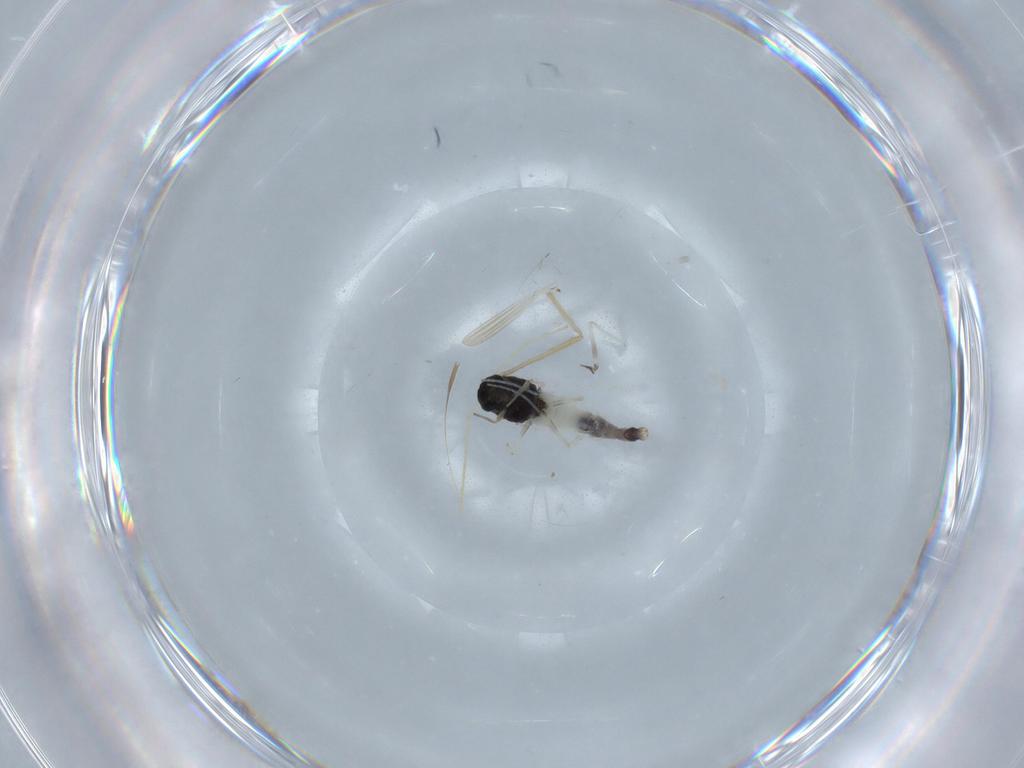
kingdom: Animalia
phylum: Arthropoda
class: Insecta
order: Diptera
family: Chironomidae
